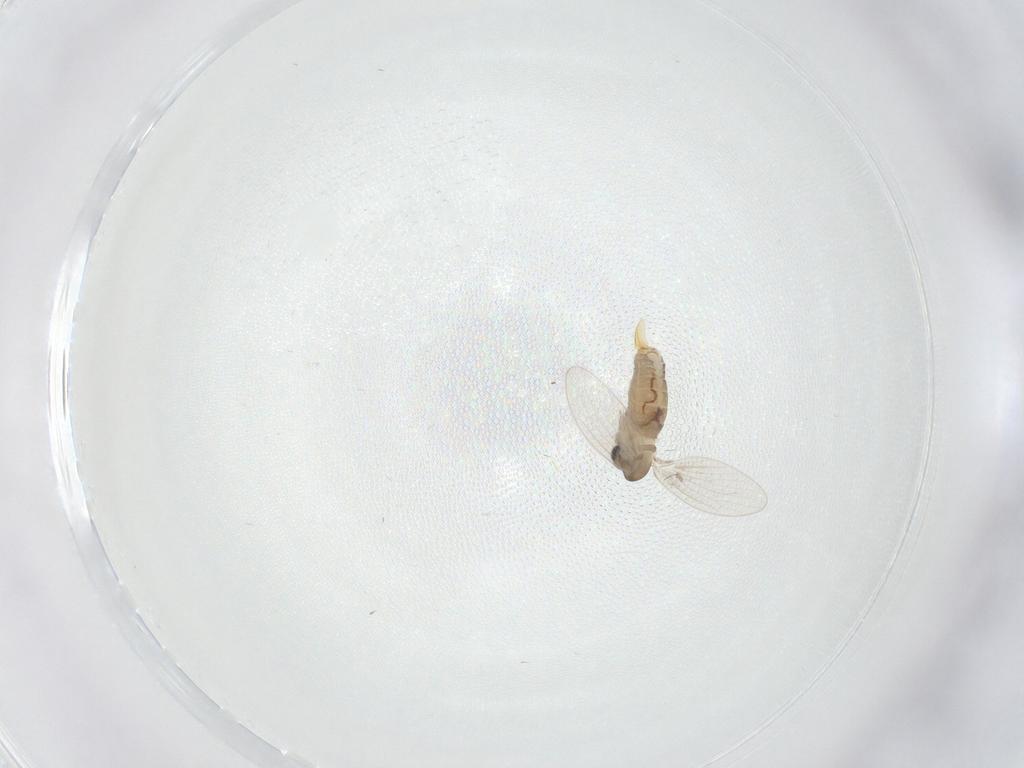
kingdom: Animalia
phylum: Arthropoda
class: Insecta
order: Diptera
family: Psychodidae
